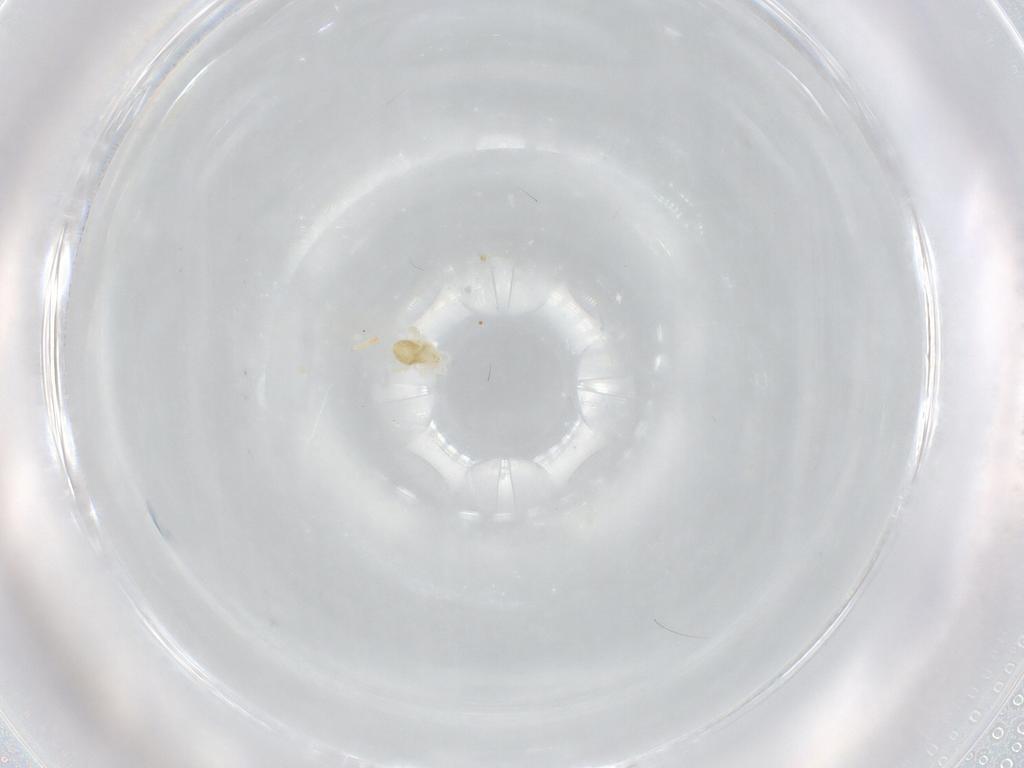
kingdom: Animalia
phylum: Arthropoda
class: Arachnida
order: Trombidiformes
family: Eupodidae
